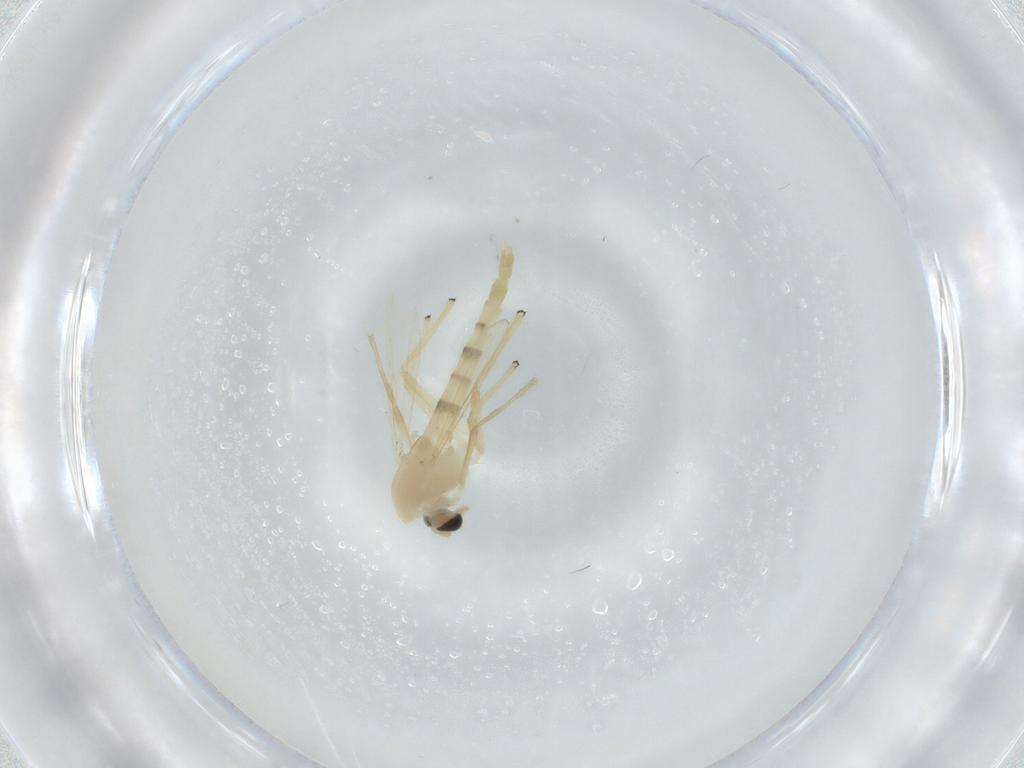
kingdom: Animalia
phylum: Arthropoda
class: Insecta
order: Diptera
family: Chironomidae
